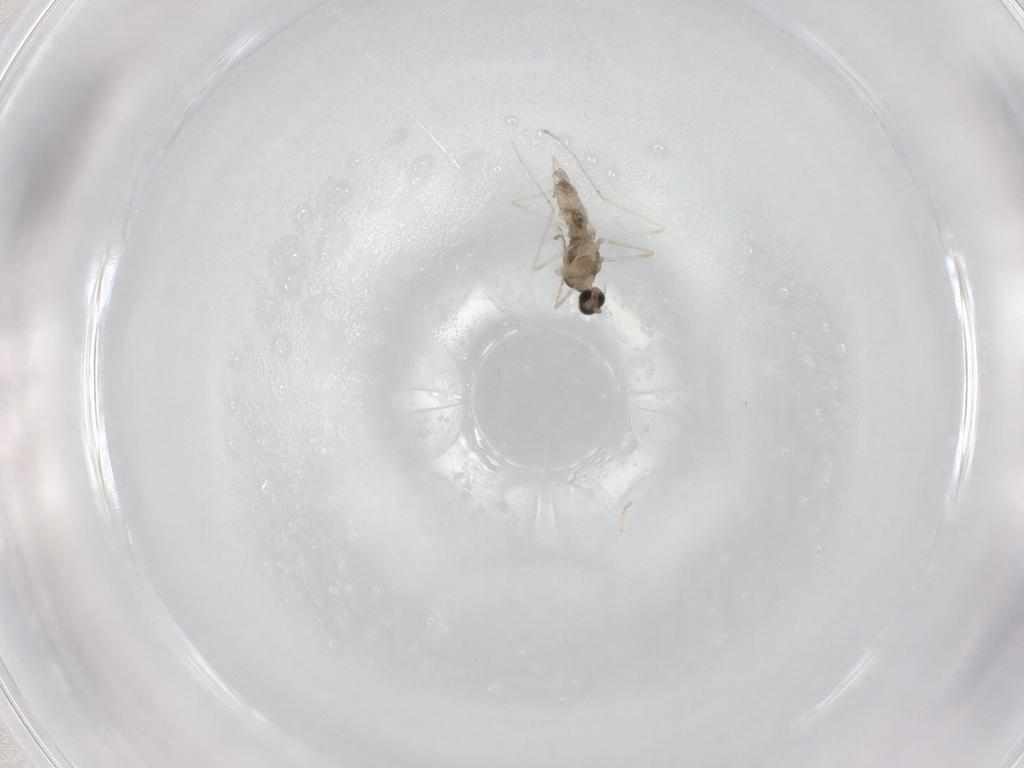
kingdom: Animalia
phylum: Arthropoda
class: Insecta
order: Diptera
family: Cecidomyiidae
